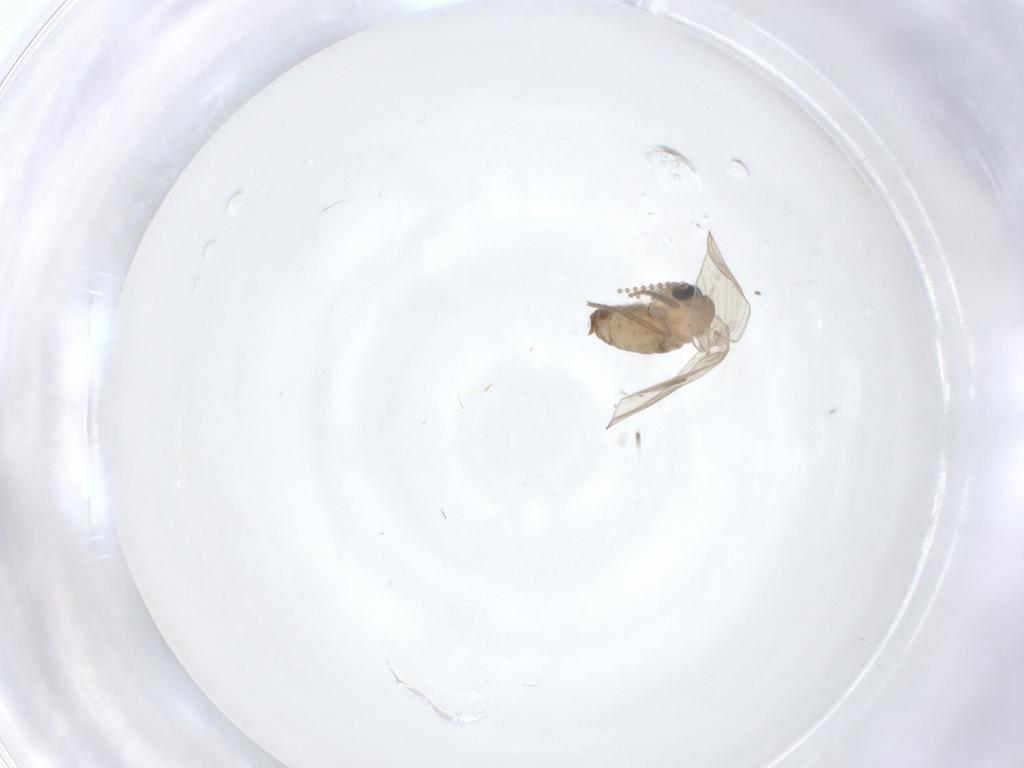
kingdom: Animalia
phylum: Arthropoda
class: Insecta
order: Diptera
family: Psychodidae
